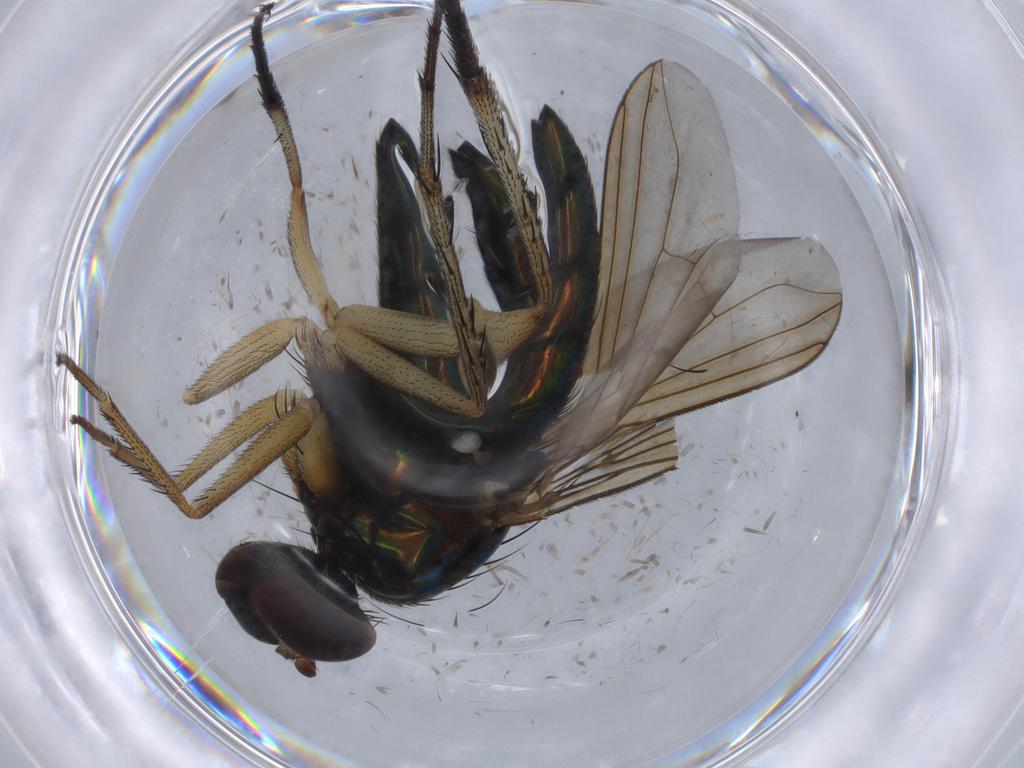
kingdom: Animalia
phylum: Arthropoda
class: Insecta
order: Diptera
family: Dolichopodidae
